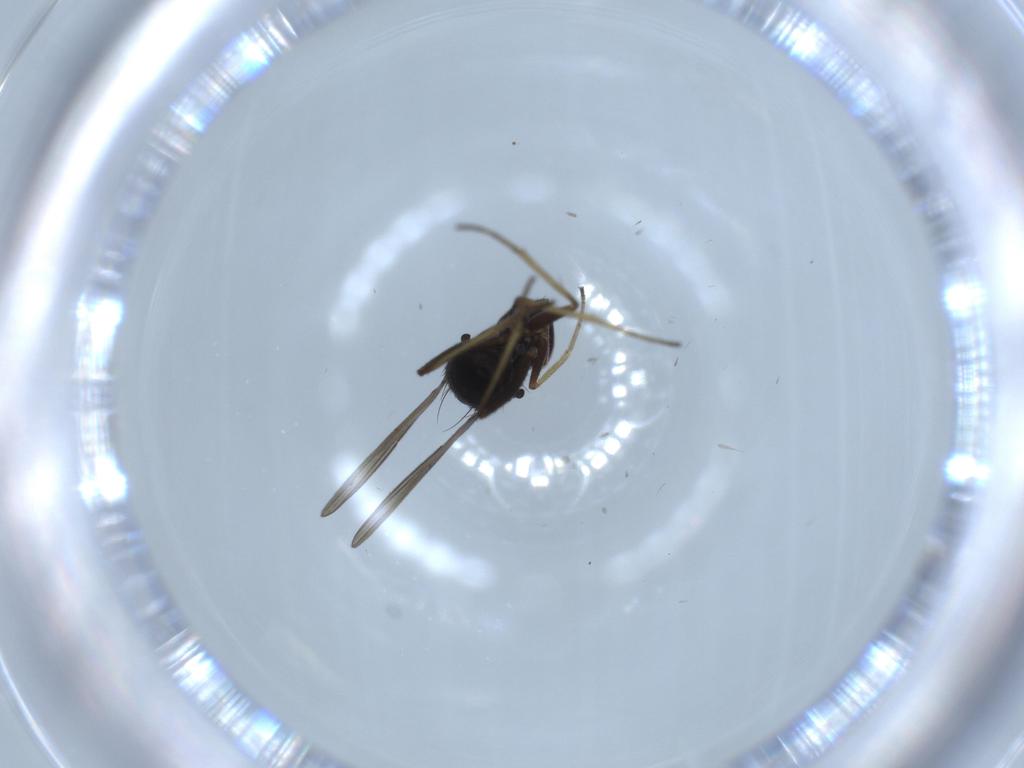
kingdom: Animalia
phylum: Arthropoda
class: Insecta
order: Diptera
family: Dolichopodidae
